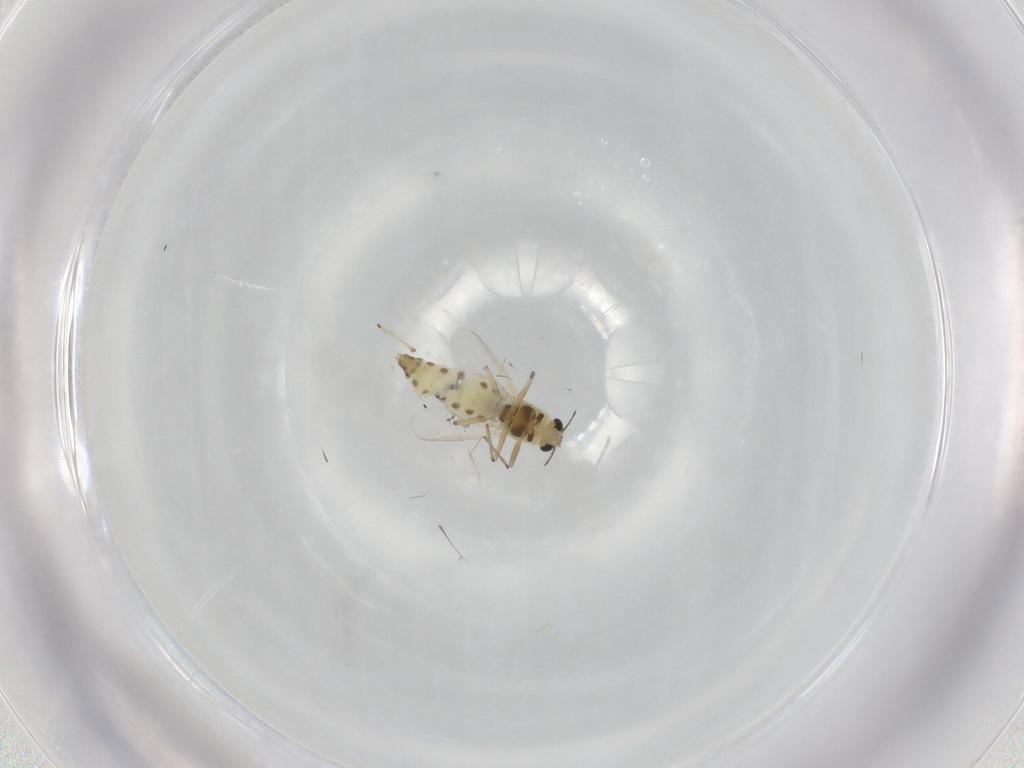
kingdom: Animalia
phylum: Arthropoda
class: Insecta
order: Diptera
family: Chironomidae
